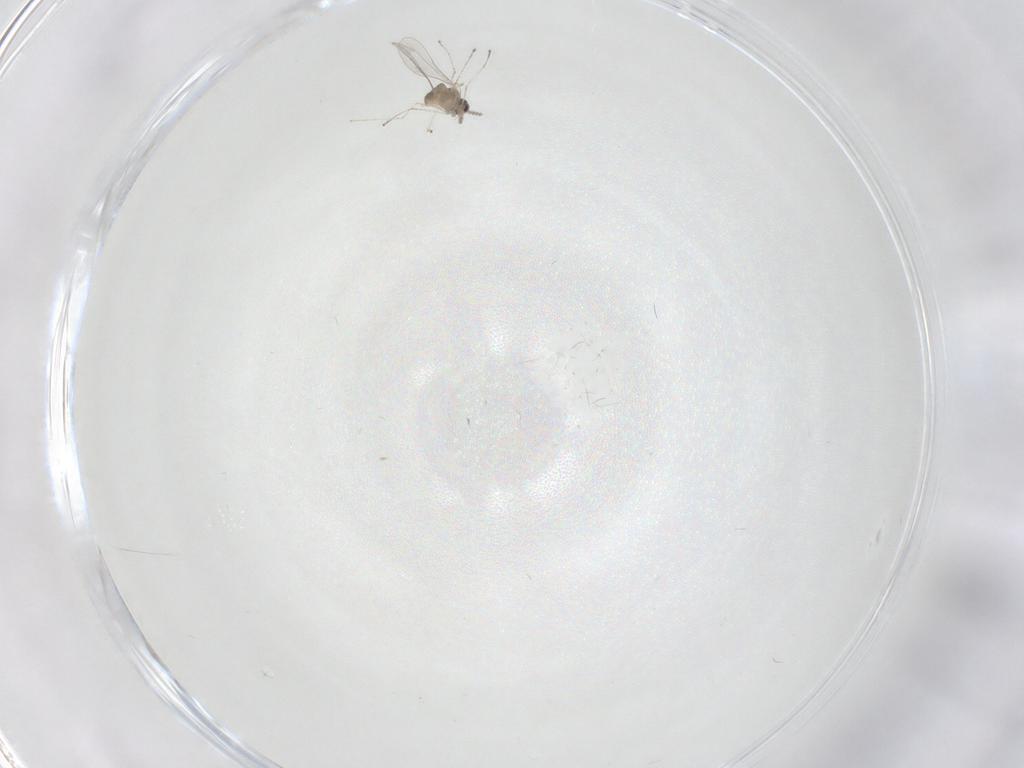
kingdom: Animalia
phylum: Arthropoda
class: Insecta
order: Diptera
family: Cecidomyiidae
